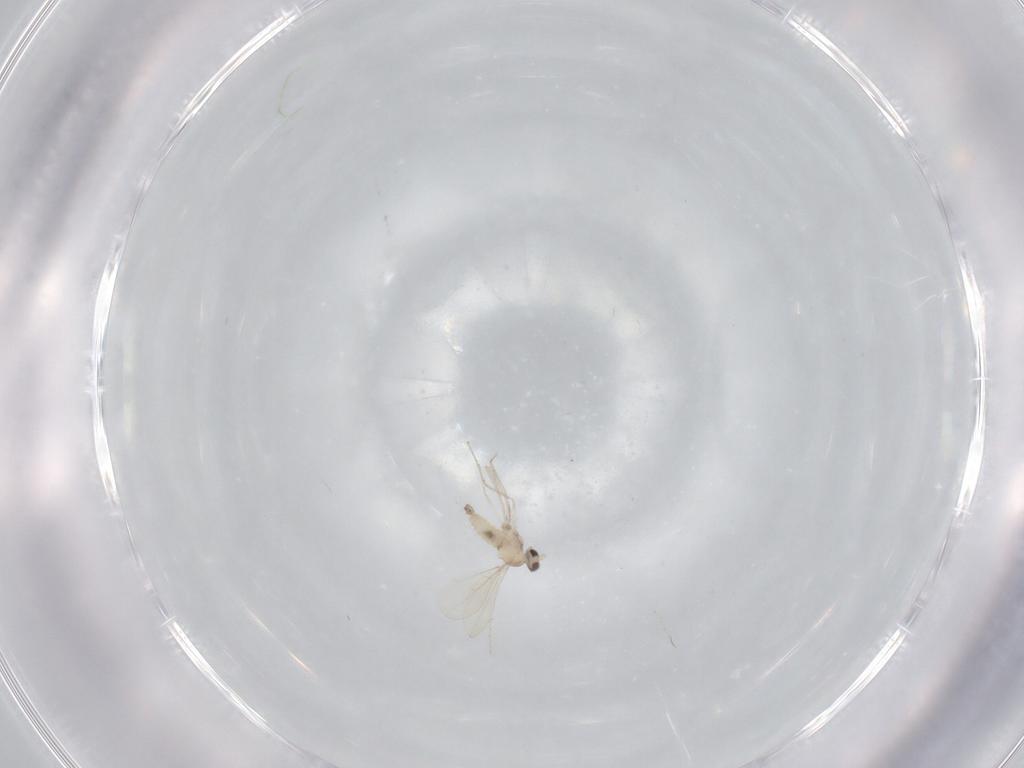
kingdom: Animalia
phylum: Arthropoda
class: Insecta
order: Diptera
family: Cecidomyiidae
